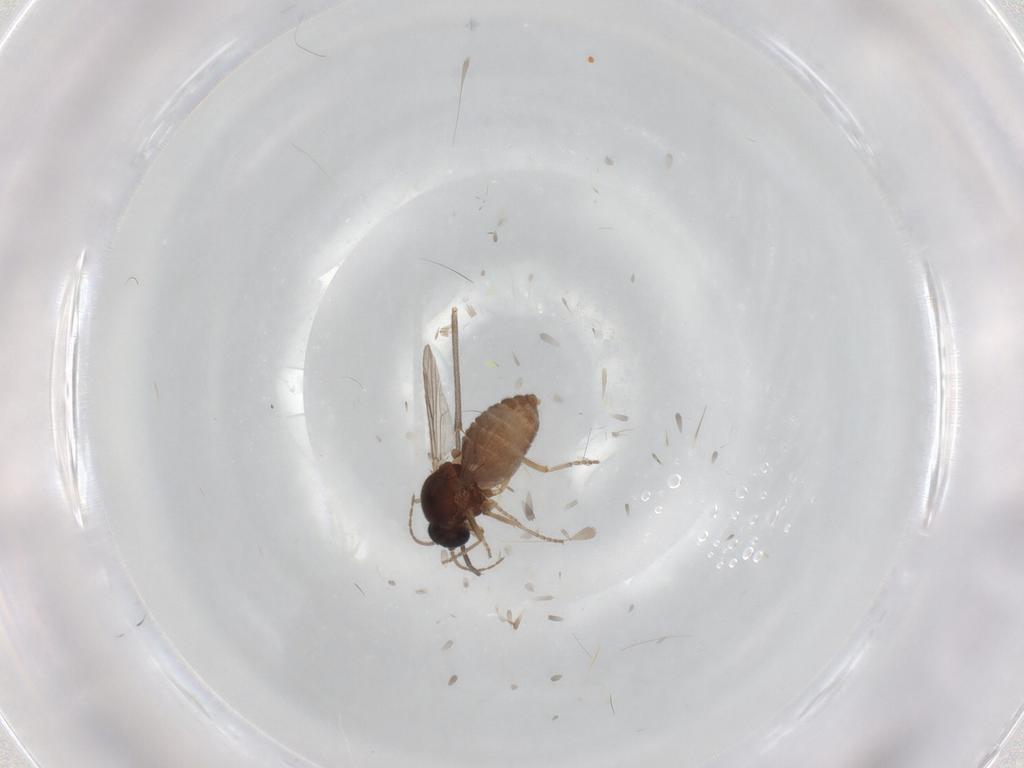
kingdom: Animalia
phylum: Arthropoda
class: Insecta
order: Diptera
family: Ceratopogonidae
